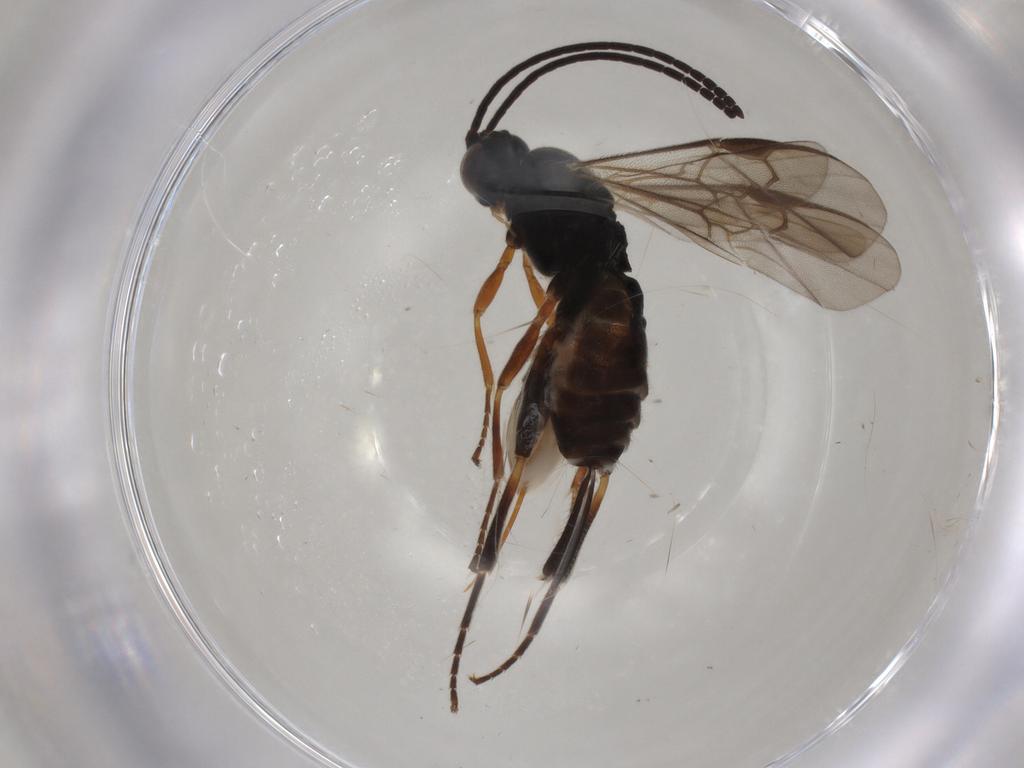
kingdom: Animalia
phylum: Arthropoda
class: Insecta
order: Hymenoptera
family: Braconidae
